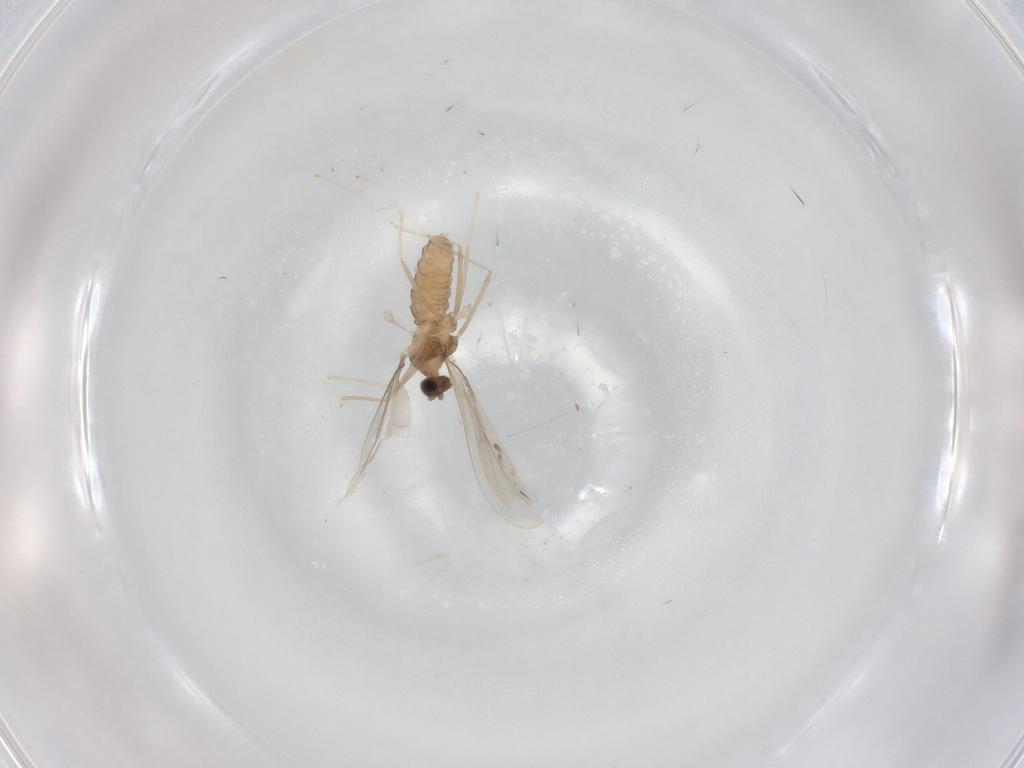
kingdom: Animalia
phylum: Arthropoda
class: Insecta
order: Diptera
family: Cecidomyiidae
